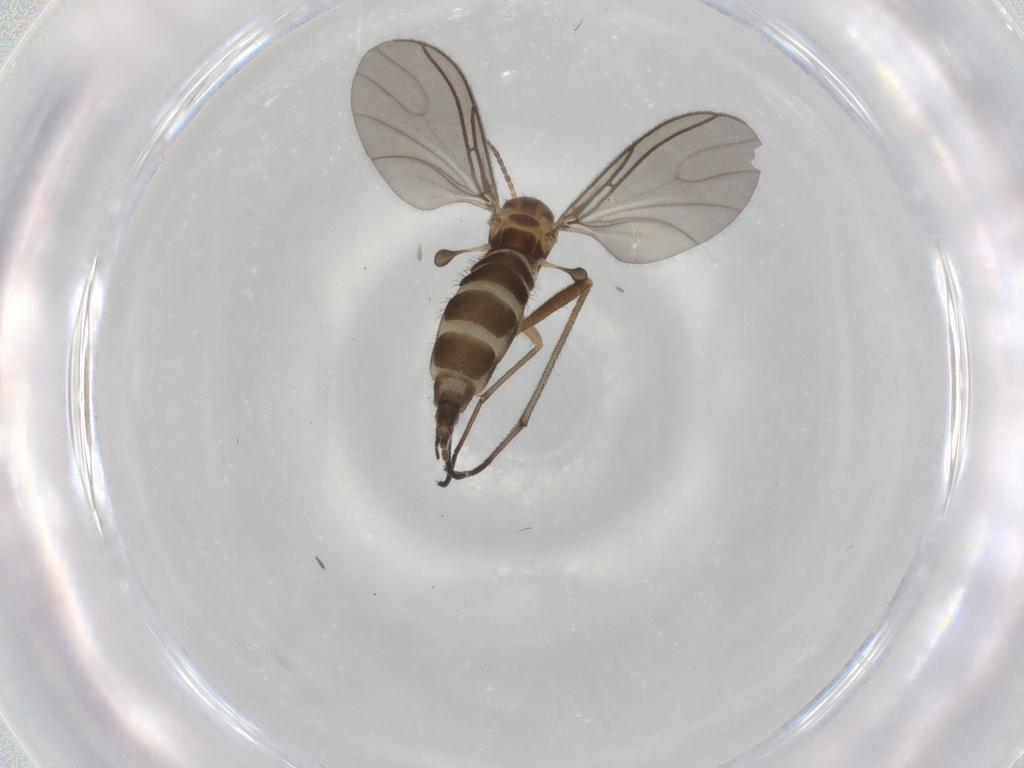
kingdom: Animalia
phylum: Arthropoda
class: Insecta
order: Diptera
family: Sciaridae
